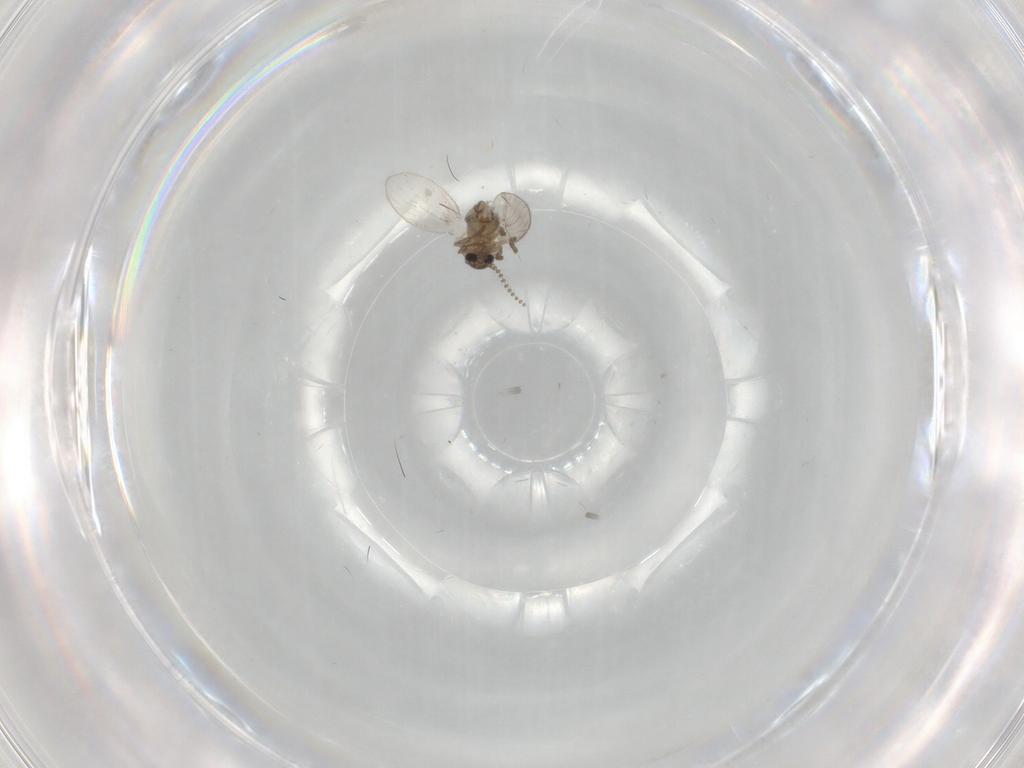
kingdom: Animalia
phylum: Arthropoda
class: Insecta
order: Diptera
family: Psychodidae
